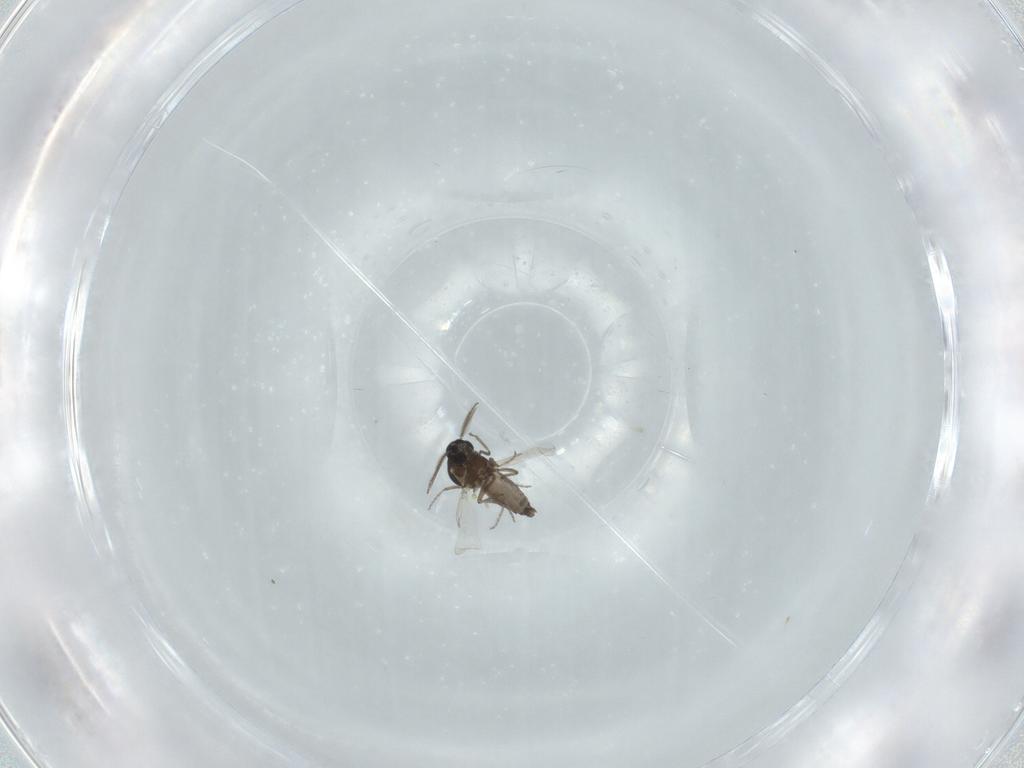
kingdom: Animalia
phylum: Arthropoda
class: Insecta
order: Diptera
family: Ceratopogonidae
